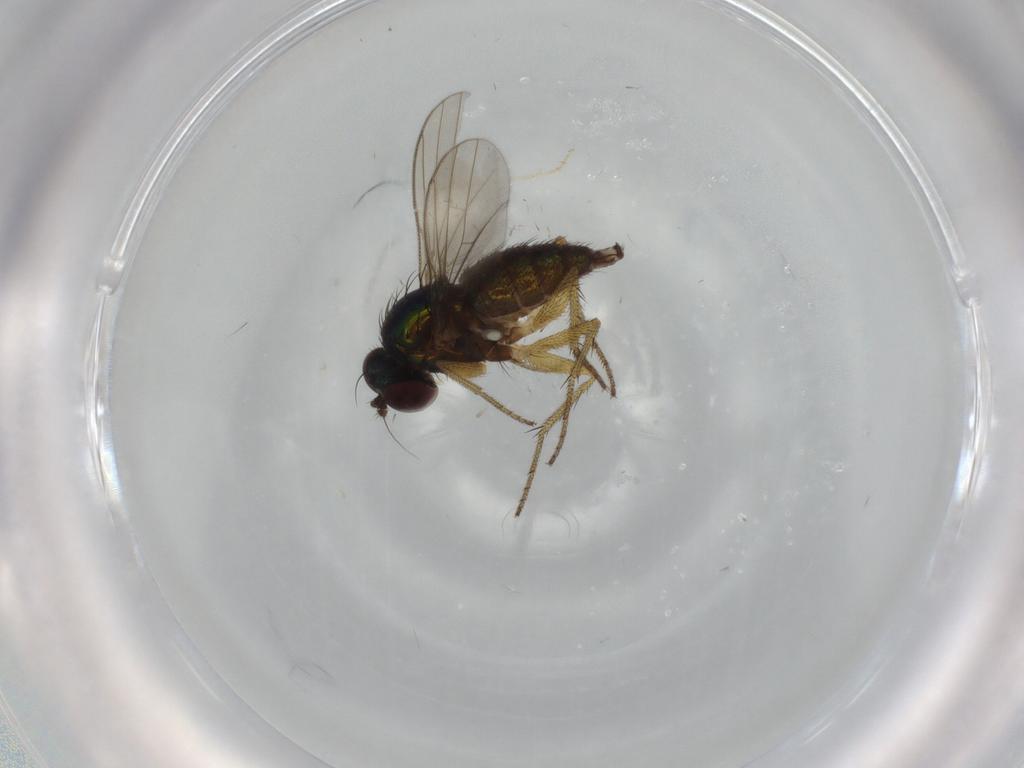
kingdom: Animalia
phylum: Arthropoda
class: Insecta
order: Diptera
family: Dolichopodidae
